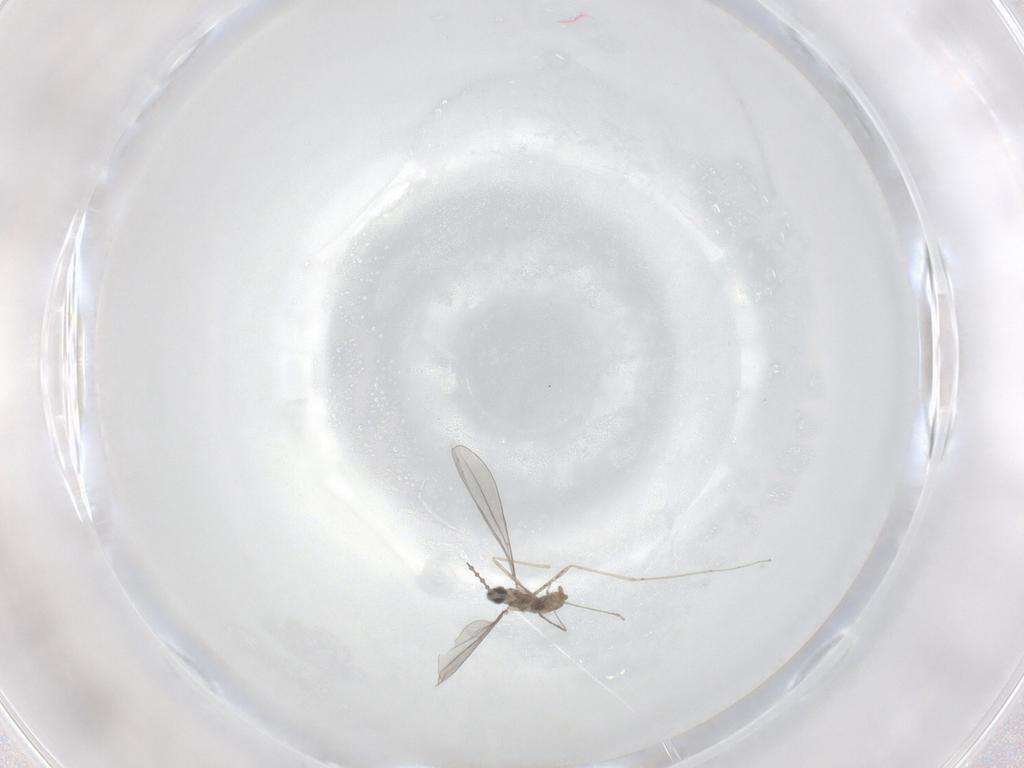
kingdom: Animalia
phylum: Arthropoda
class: Insecta
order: Diptera
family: Cecidomyiidae
